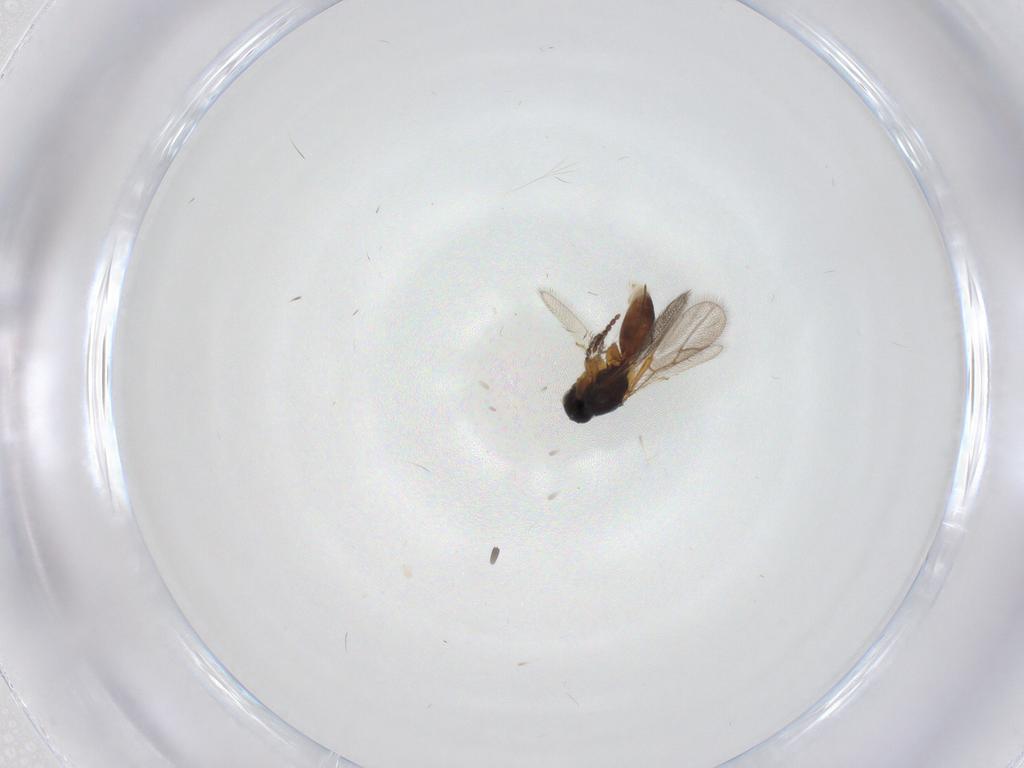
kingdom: Animalia
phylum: Arthropoda
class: Insecta
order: Hymenoptera
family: Figitidae
